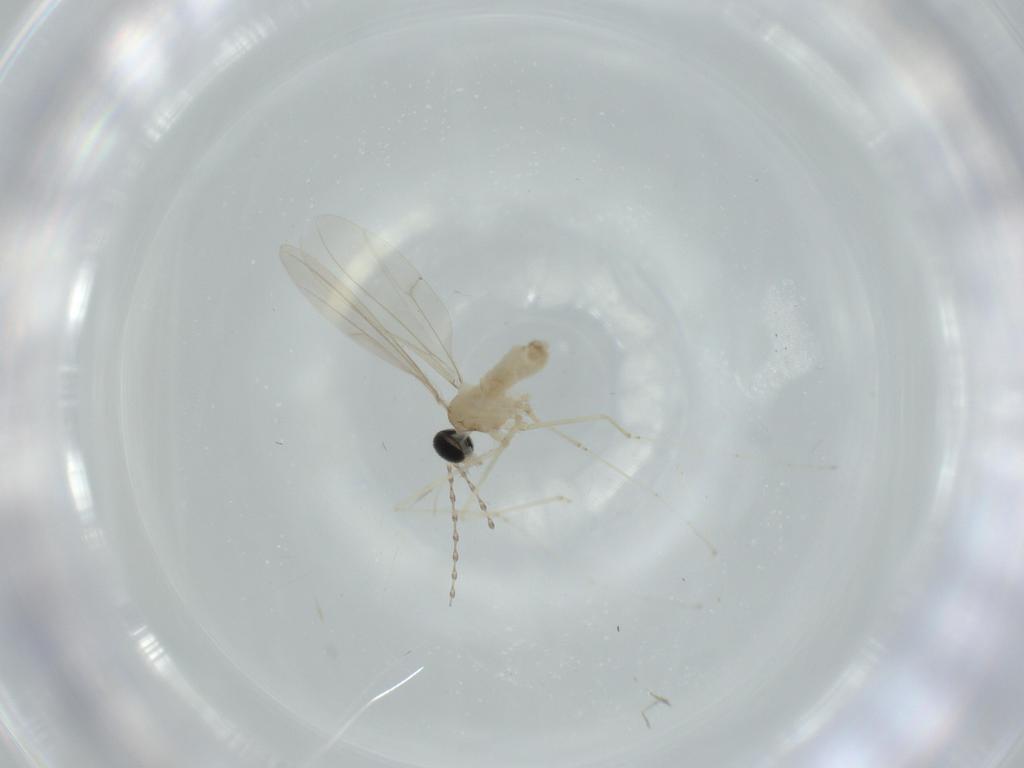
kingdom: Animalia
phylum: Arthropoda
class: Insecta
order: Diptera
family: Cecidomyiidae
